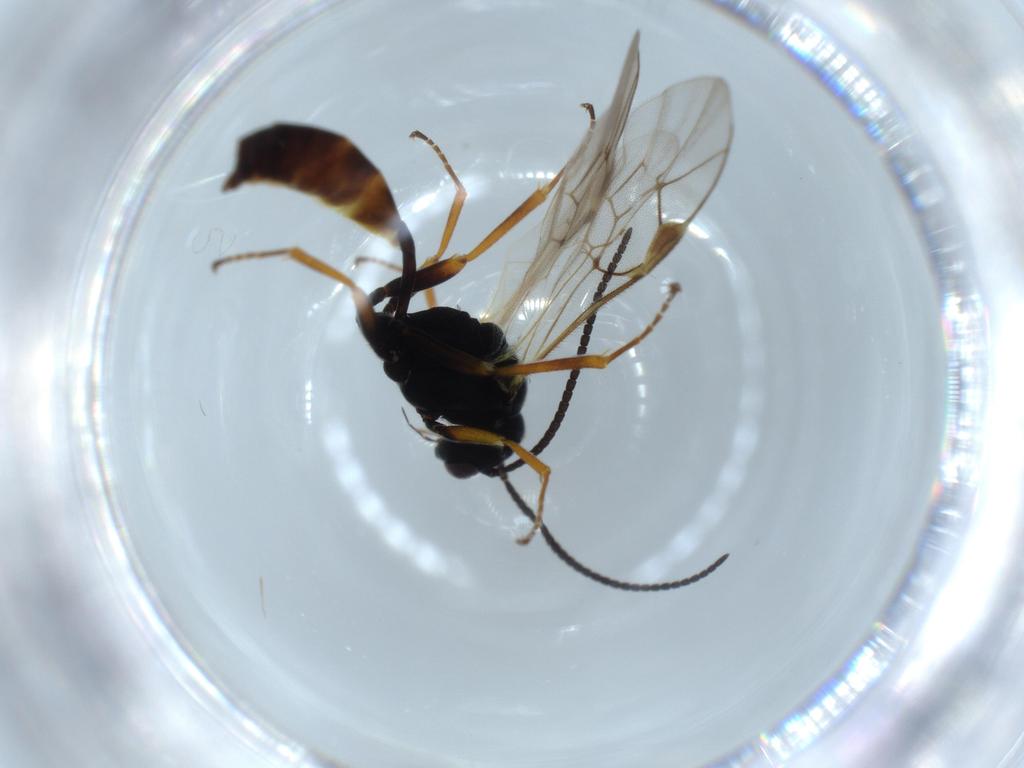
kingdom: Animalia
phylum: Arthropoda
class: Insecta
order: Hymenoptera
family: Ichneumonidae
